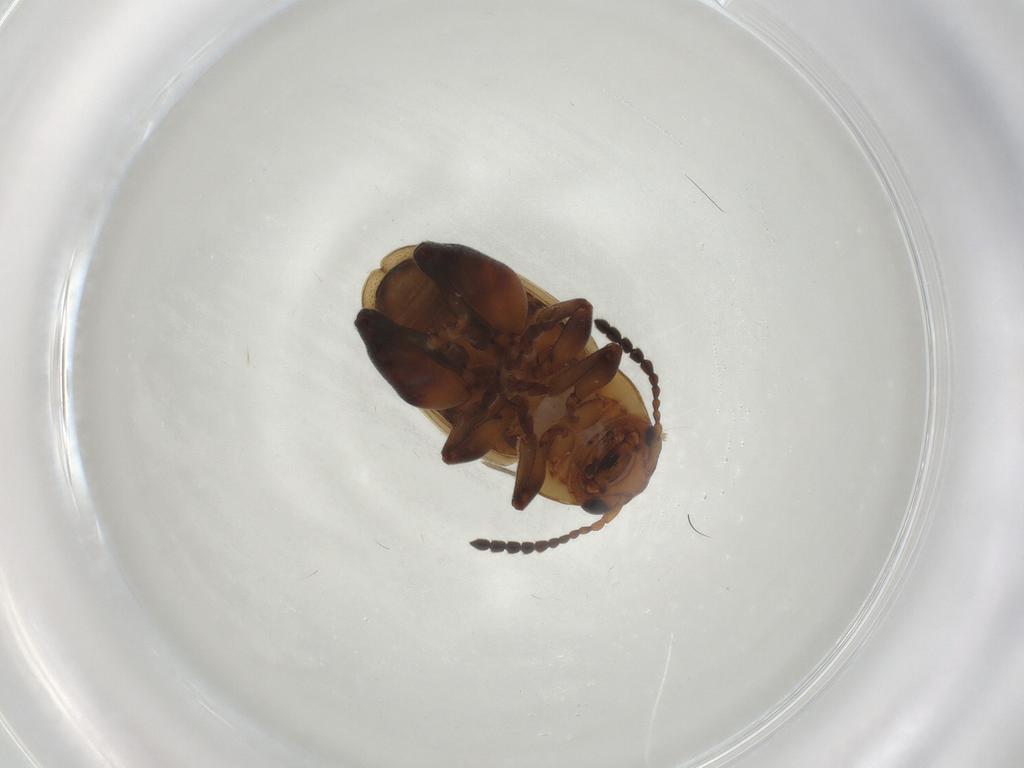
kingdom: Animalia
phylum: Arthropoda
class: Insecta
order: Coleoptera
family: Chrysomelidae
